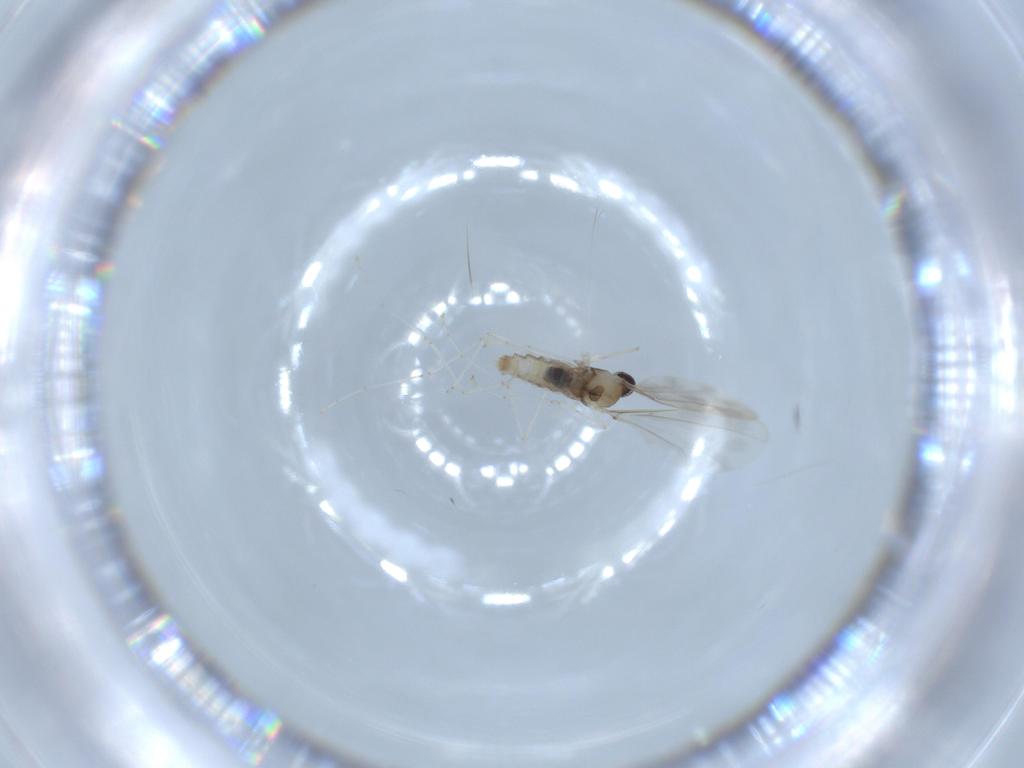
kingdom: Animalia
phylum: Arthropoda
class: Insecta
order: Diptera
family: Cecidomyiidae
